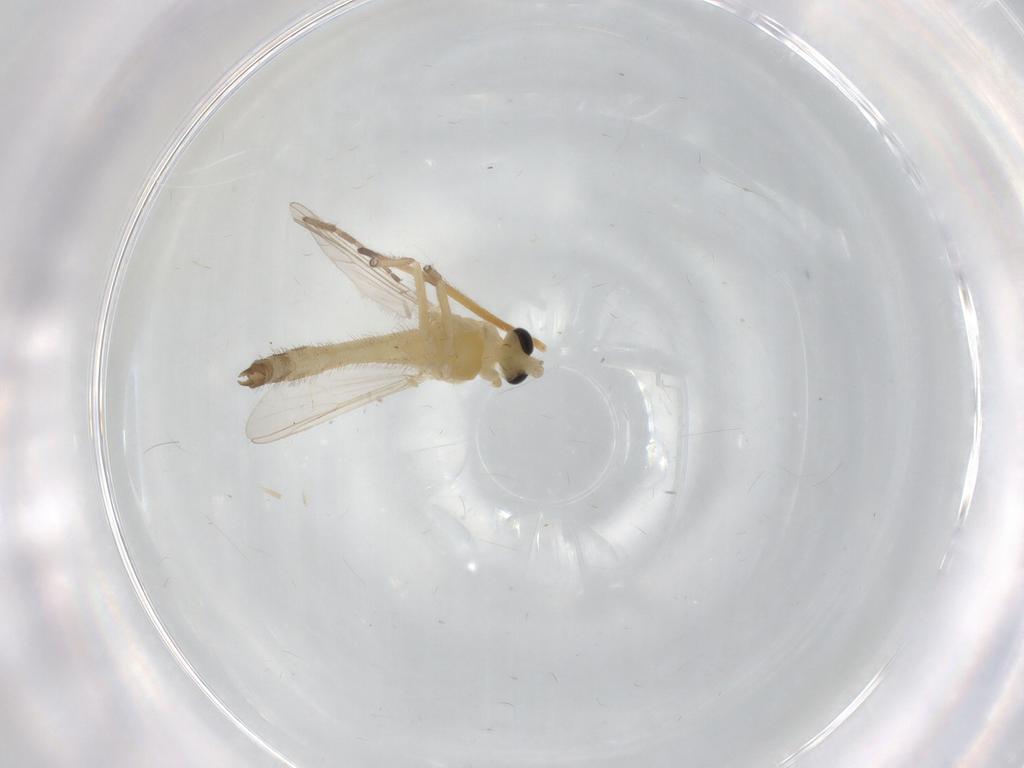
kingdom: Animalia
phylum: Arthropoda
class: Insecta
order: Diptera
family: Chironomidae
